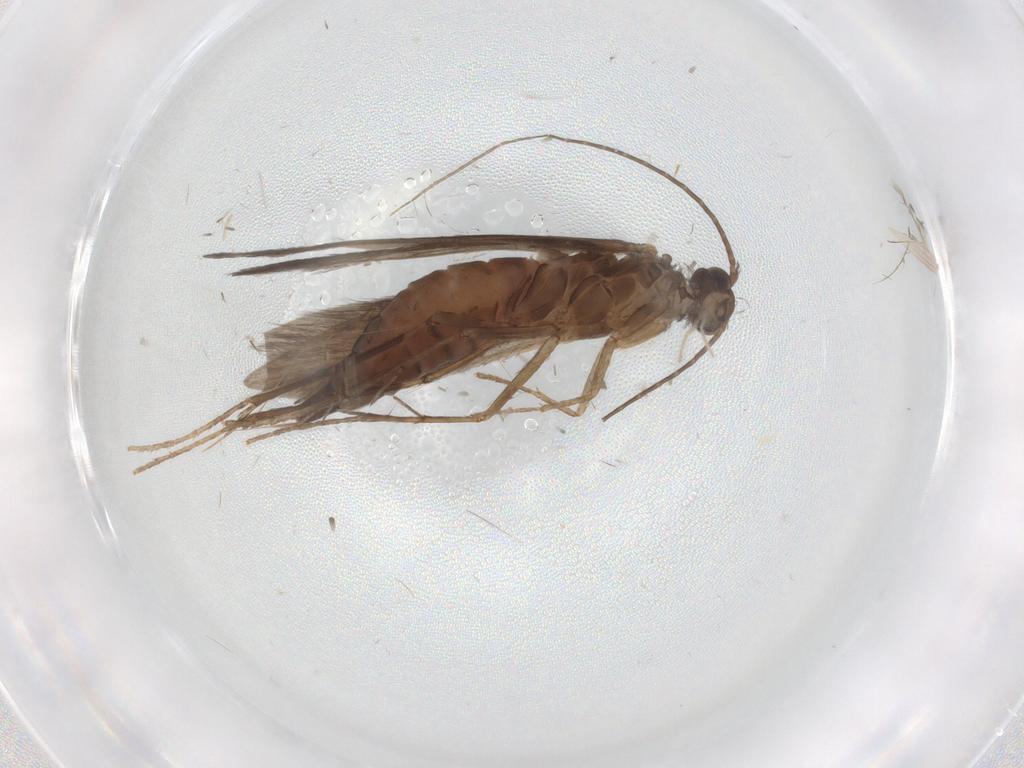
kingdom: Animalia
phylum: Arthropoda
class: Insecta
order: Trichoptera
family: Xiphocentronidae
